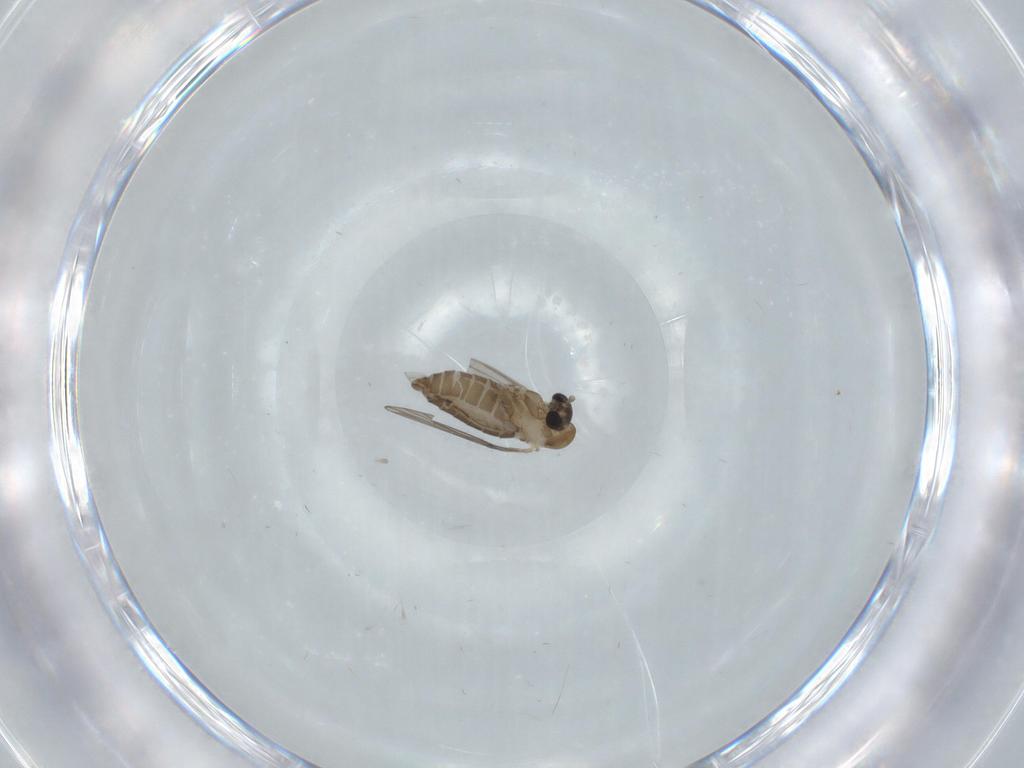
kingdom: Animalia
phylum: Arthropoda
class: Insecta
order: Diptera
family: Psychodidae
